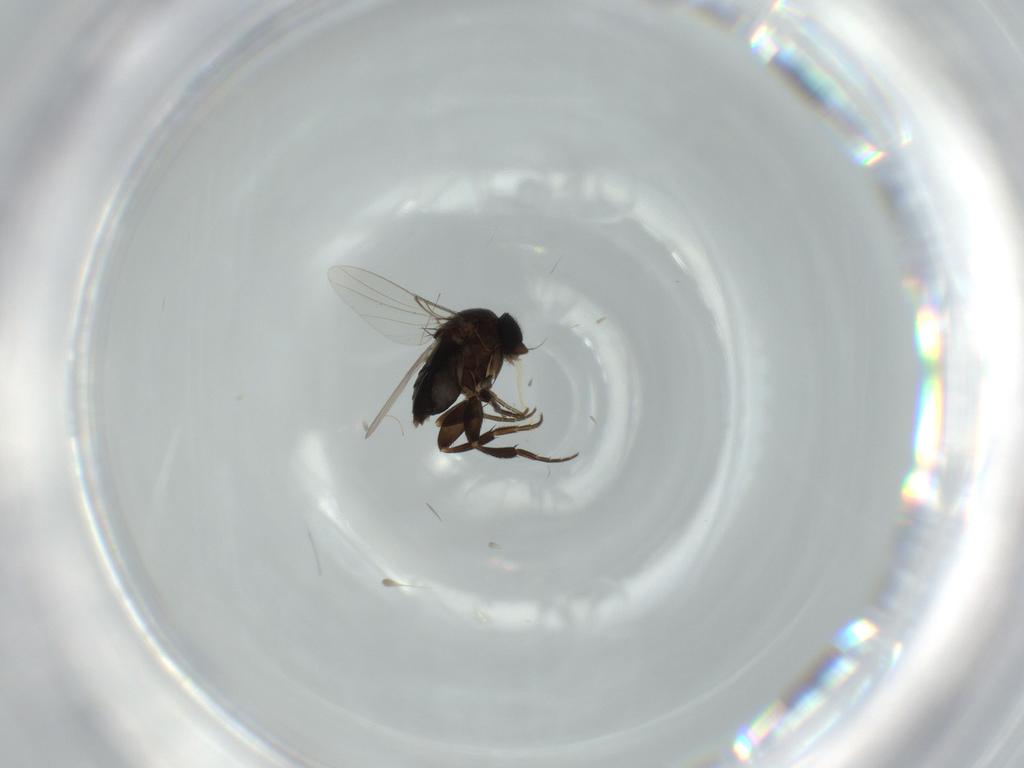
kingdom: Animalia
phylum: Arthropoda
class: Insecta
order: Diptera
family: Phoridae
